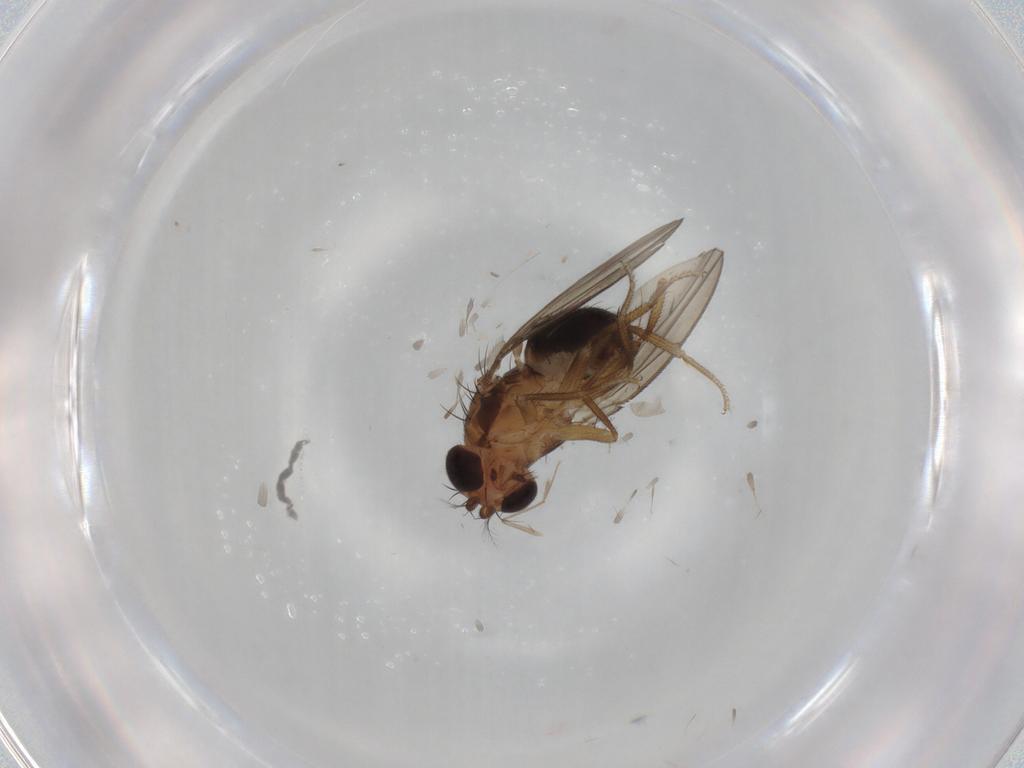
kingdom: Animalia
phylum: Arthropoda
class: Insecta
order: Diptera
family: Drosophilidae
